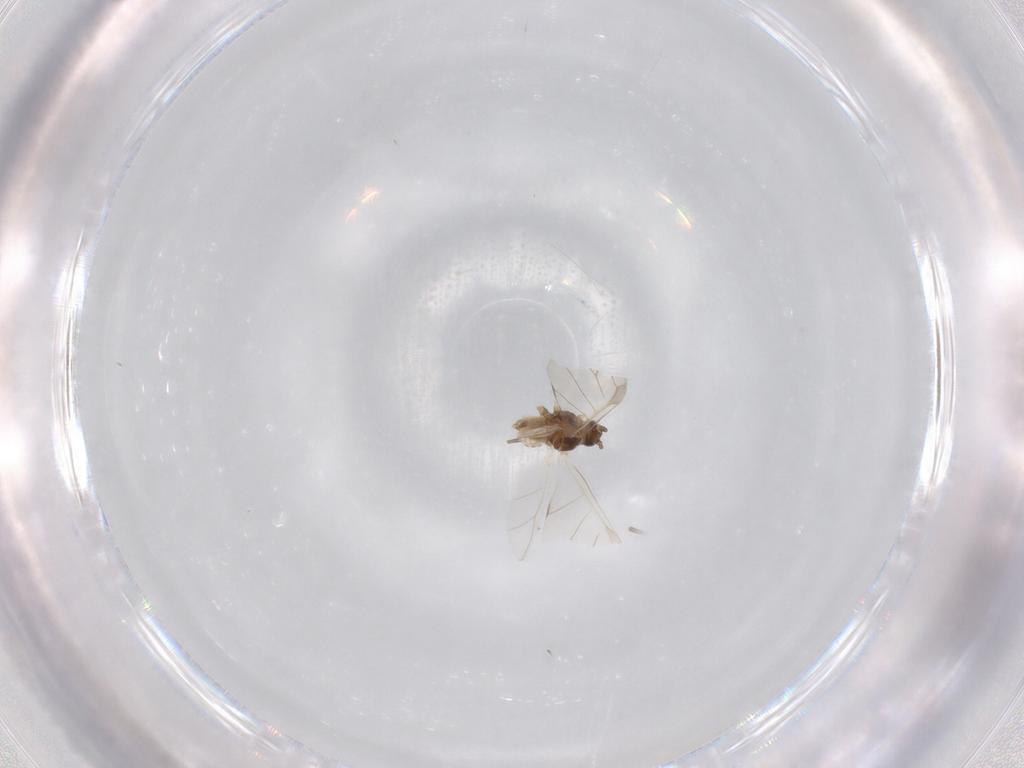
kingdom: Animalia
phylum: Arthropoda
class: Insecta
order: Hemiptera
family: Aphididae
